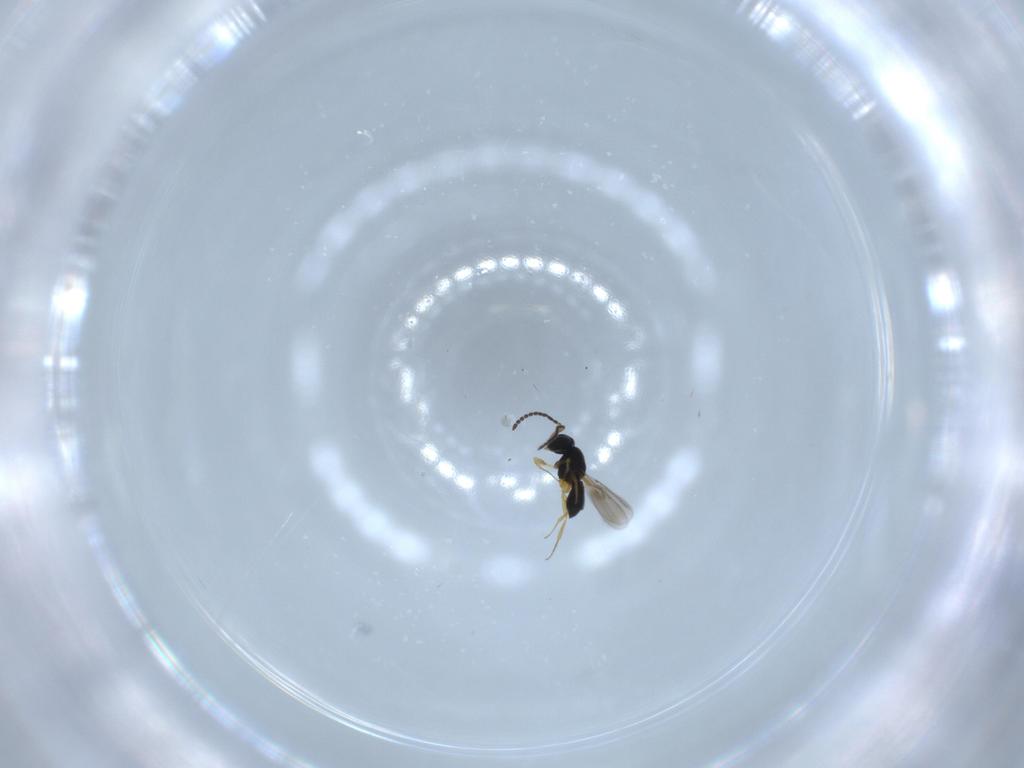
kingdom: Animalia
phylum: Arthropoda
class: Insecta
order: Hymenoptera
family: Scelionidae
